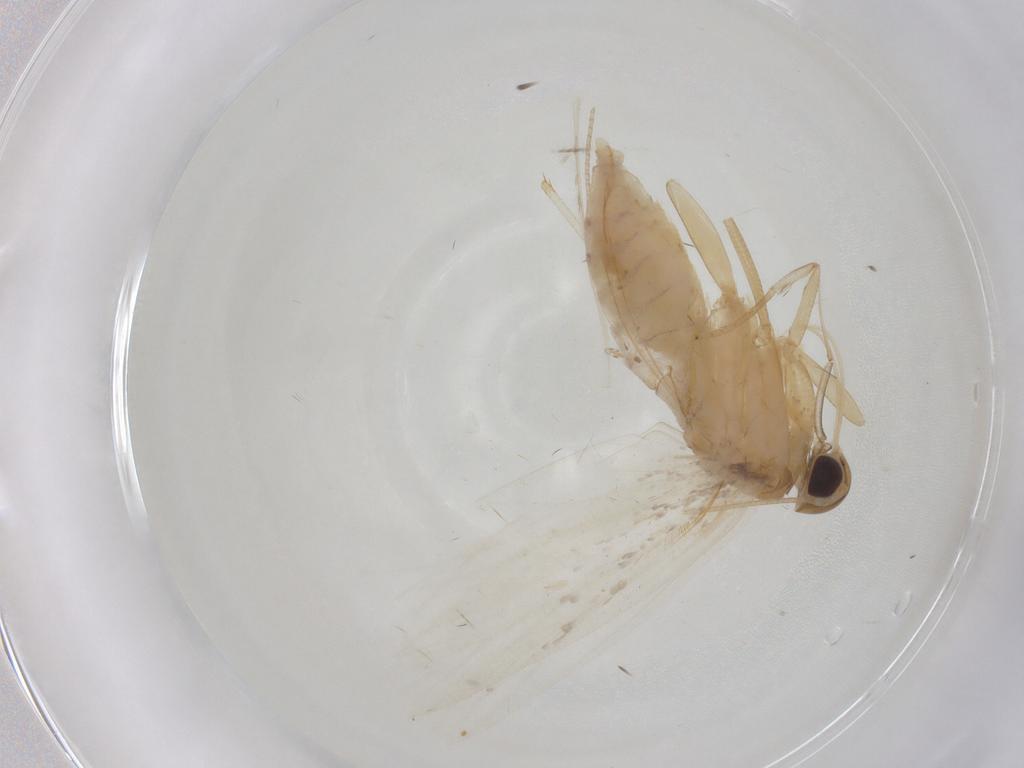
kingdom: Animalia
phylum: Arthropoda
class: Insecta
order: Lepidoptera
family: Gelechiidae
